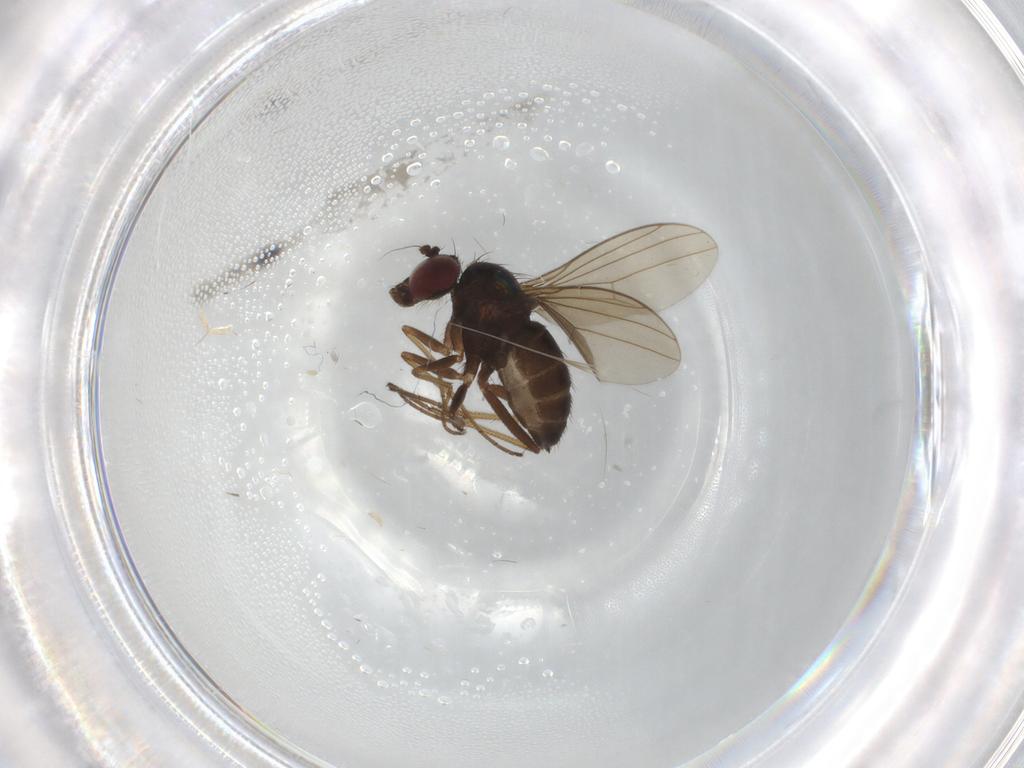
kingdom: Animalia
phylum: Arthropoda
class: Insecta
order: Diptera
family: Dolichopodidae
